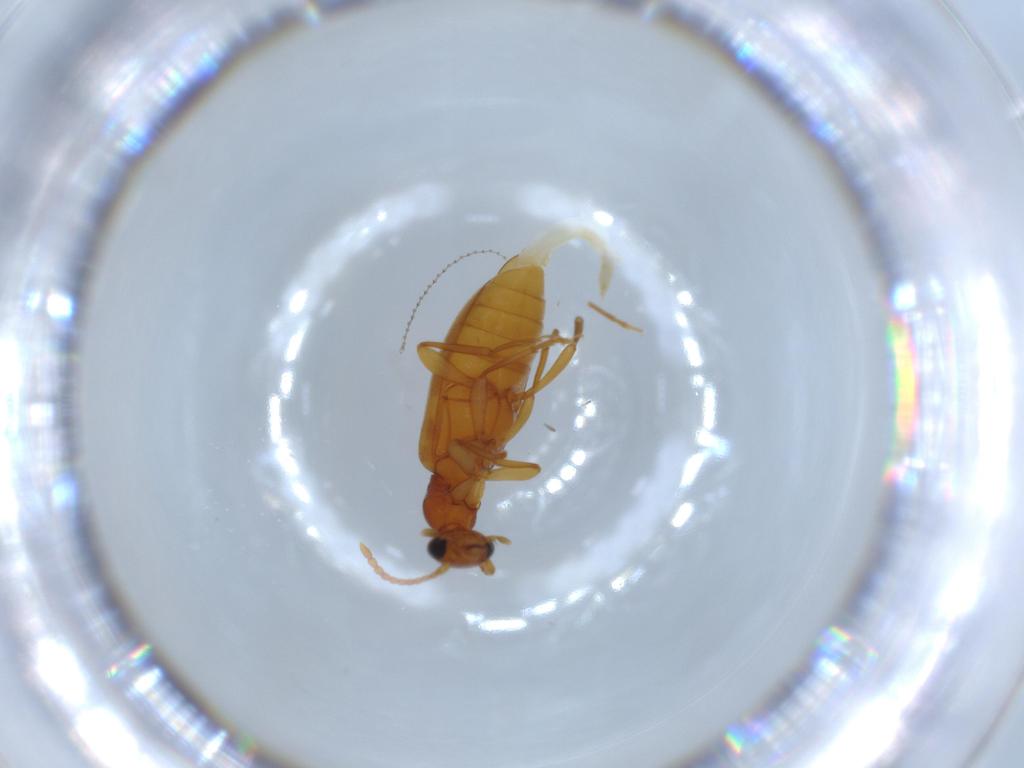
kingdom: Animalia
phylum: Arthropoda
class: Insecta
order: Coleoptera
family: Anthicidae
